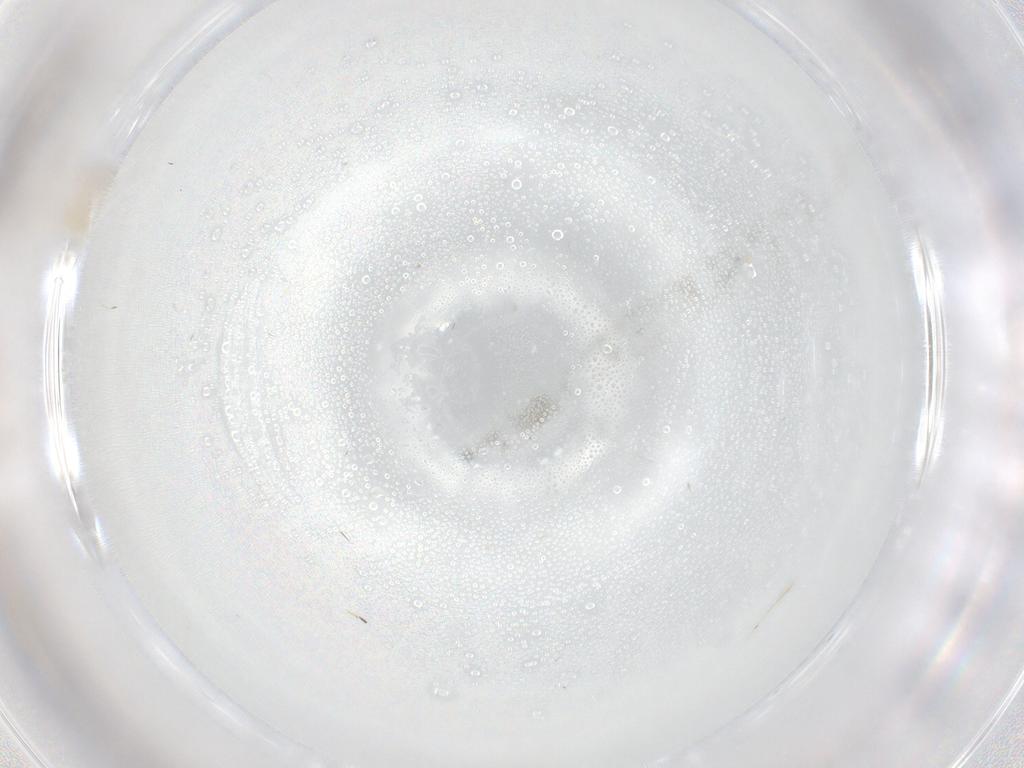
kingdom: Animalia
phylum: Arthropoda
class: Insecta
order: Hymenoptera
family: Mymaridae
